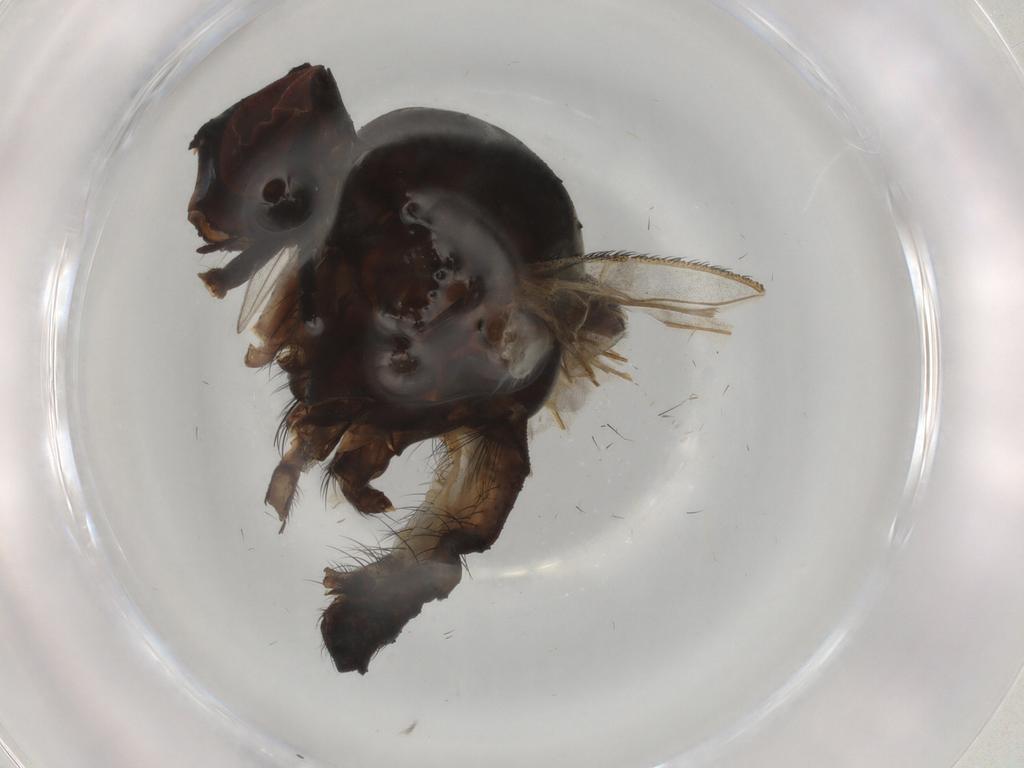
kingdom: Animalia
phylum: Arthropoda
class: Insecta
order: Diptera
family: Anthomyiidae
